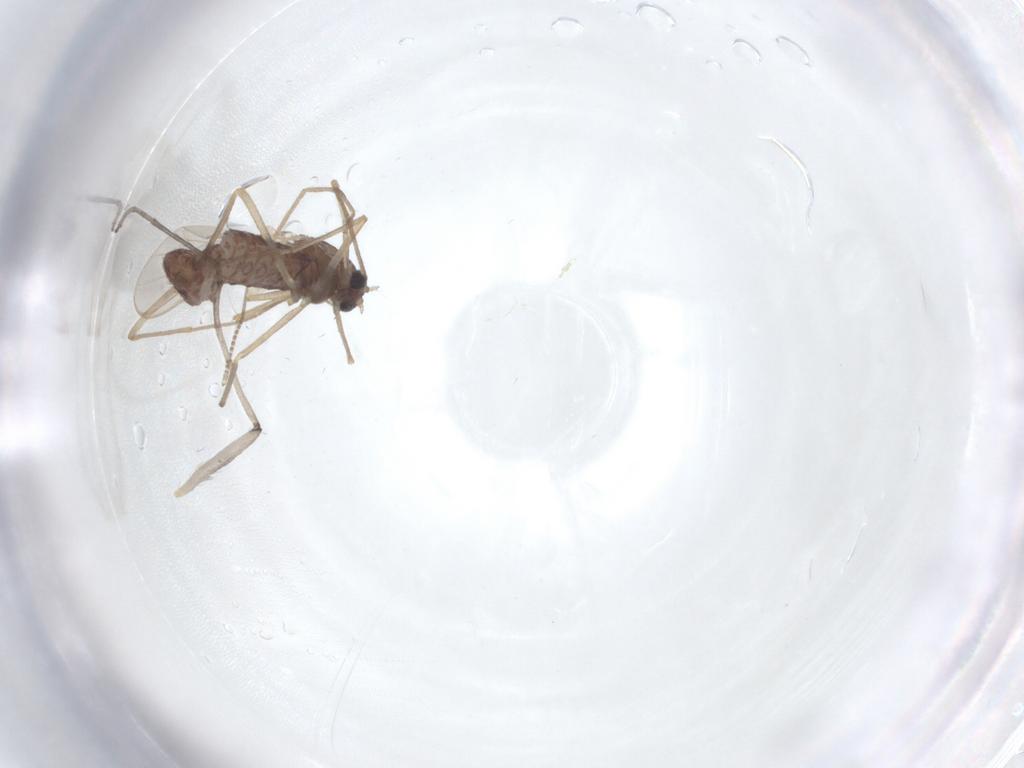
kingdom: Animalia
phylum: Arthropoda
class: Insecta
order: Diptera
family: Chironomidae
